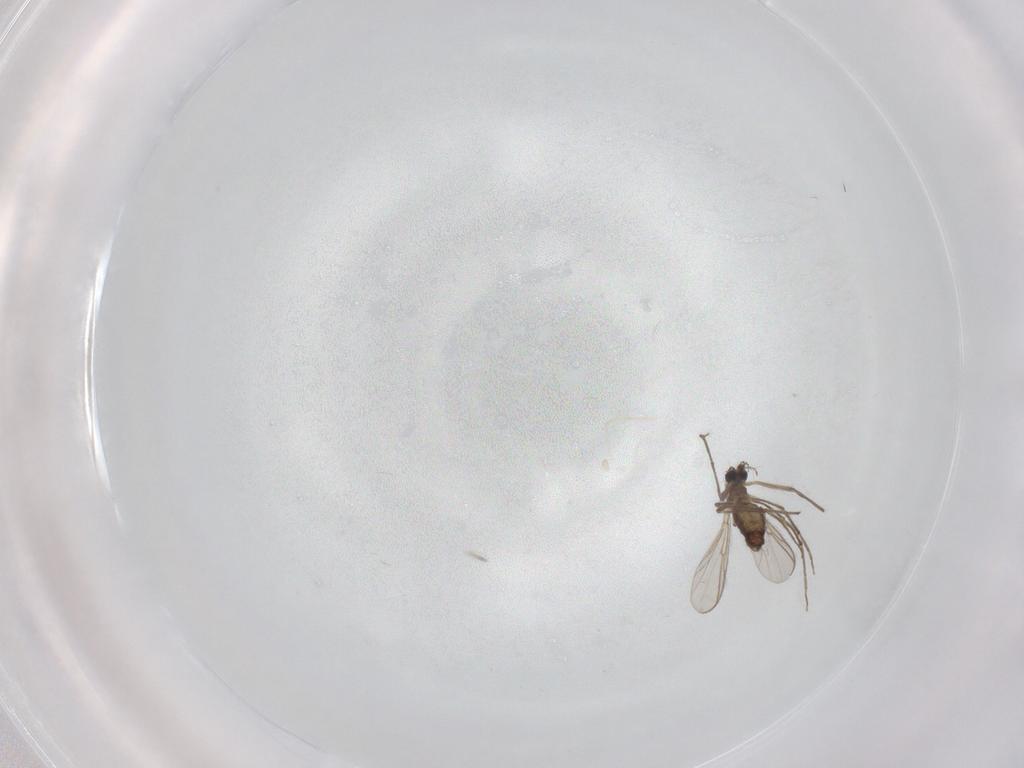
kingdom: Animalia
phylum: Arthropoda
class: Insecta
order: Diptera
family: Chironomidae
